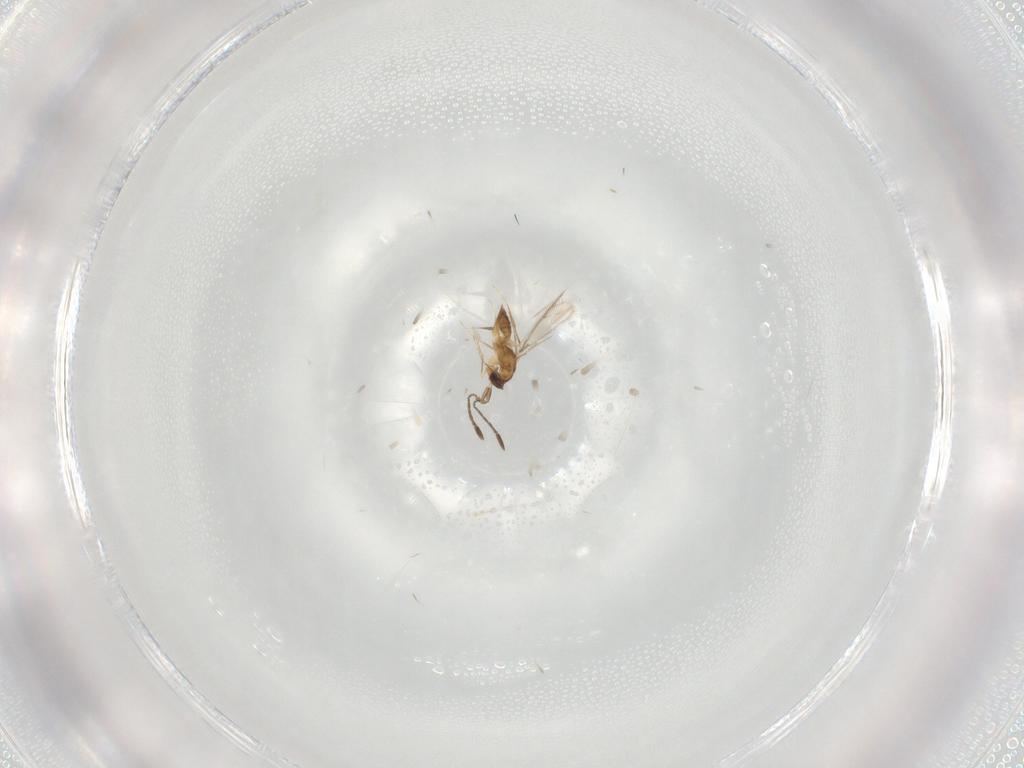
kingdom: Animalia
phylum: Arthropoda
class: Insecta
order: Hymenoptera
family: Mymaridae
